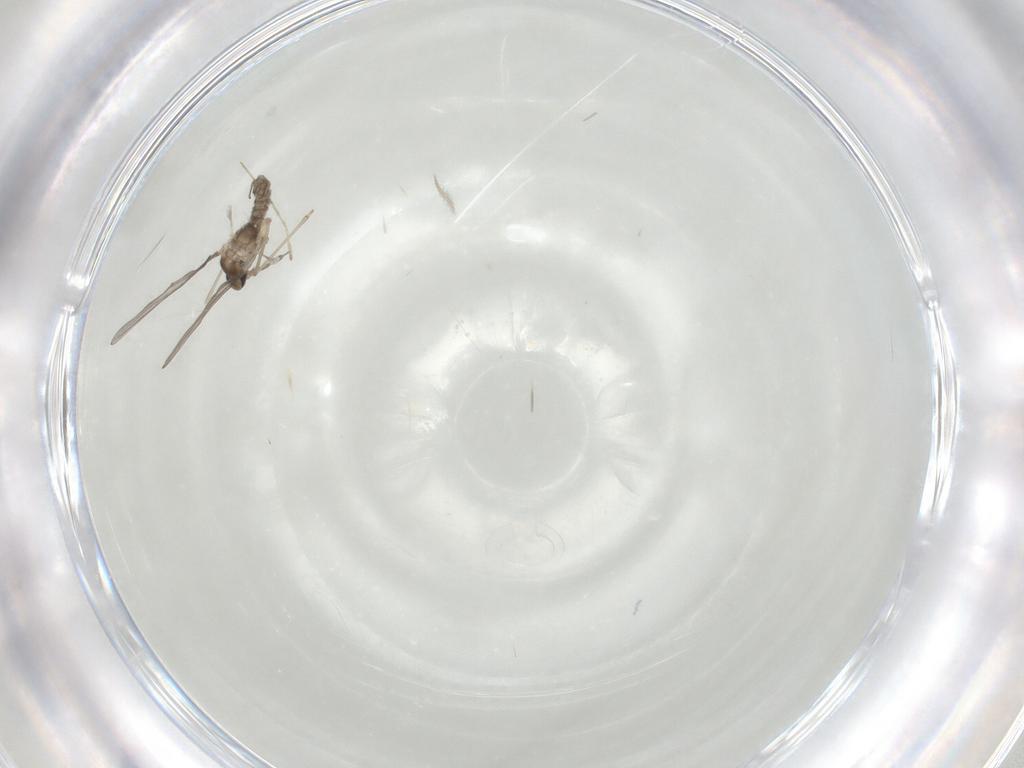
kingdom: Animalia
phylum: Arthropoda
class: Insecta
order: Diptera
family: Cecidomyiidae
